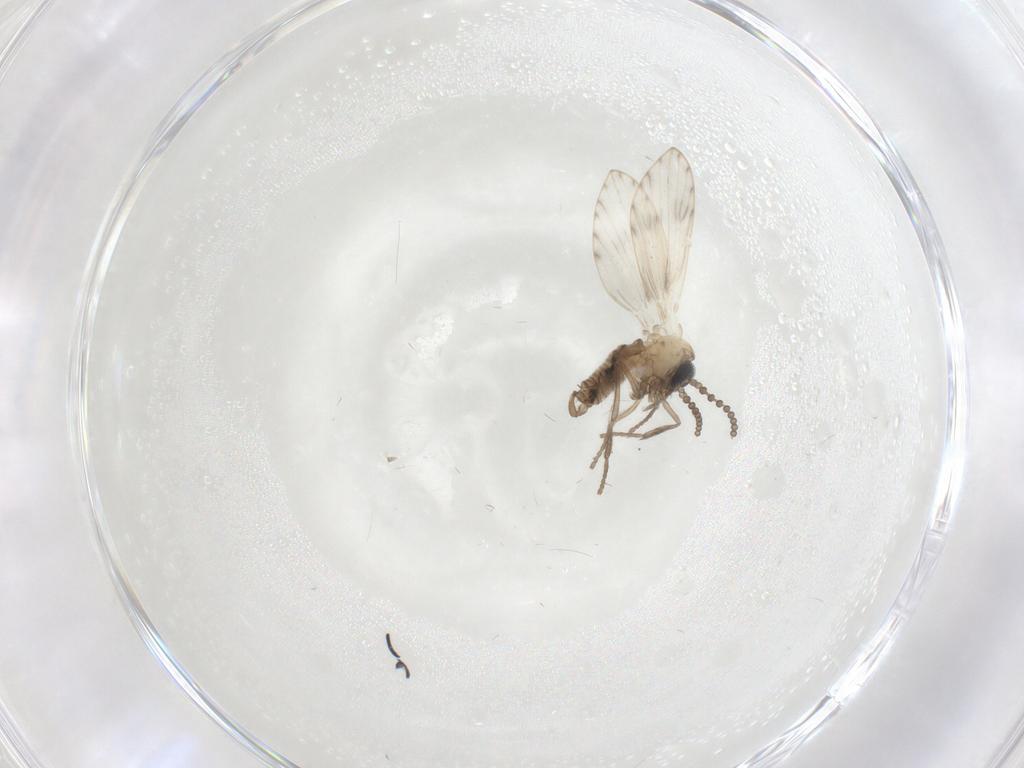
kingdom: Animalia
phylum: Arthropoda
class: Insecta
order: Diptera
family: Psychodidae
